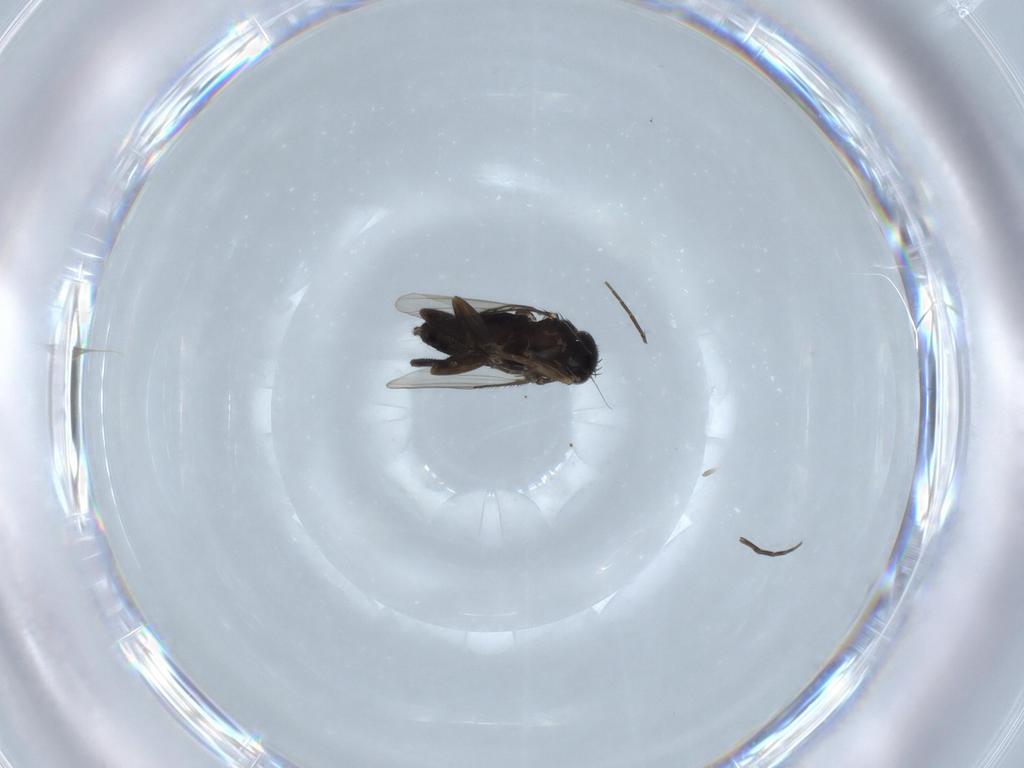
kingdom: Animalia
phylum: Arthropoda
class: Insecta
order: Diptera
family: Phoridae
